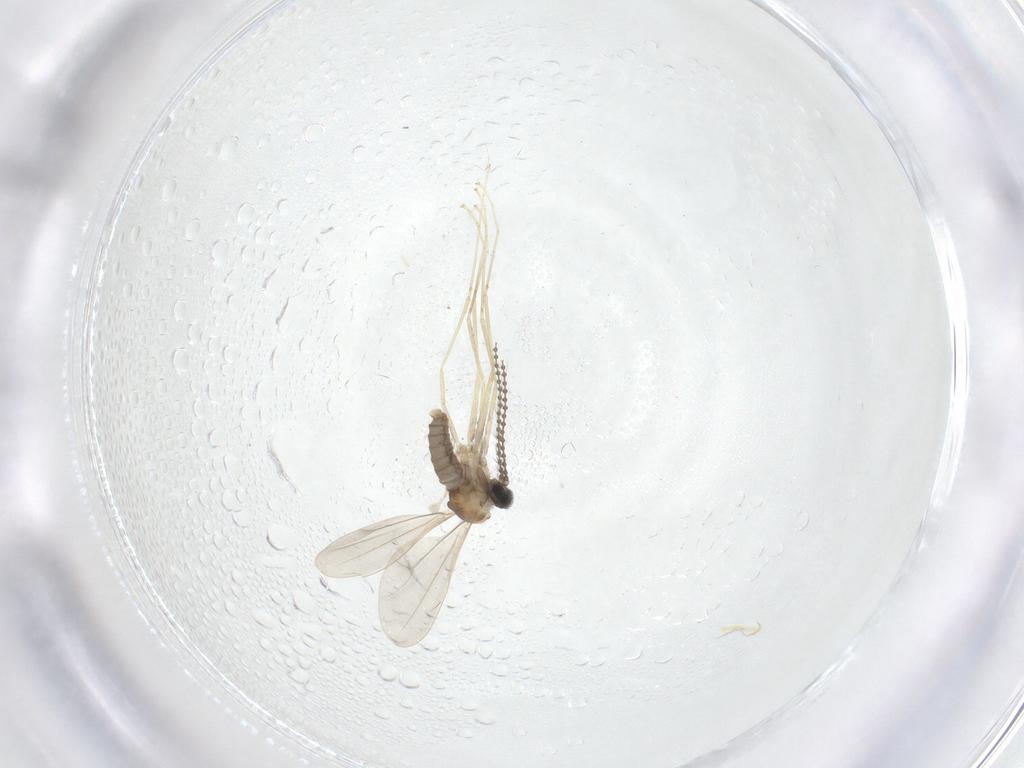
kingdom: Animalia
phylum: Arthropoda
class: Insecta
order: Diptera
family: Cecidomyiidae
